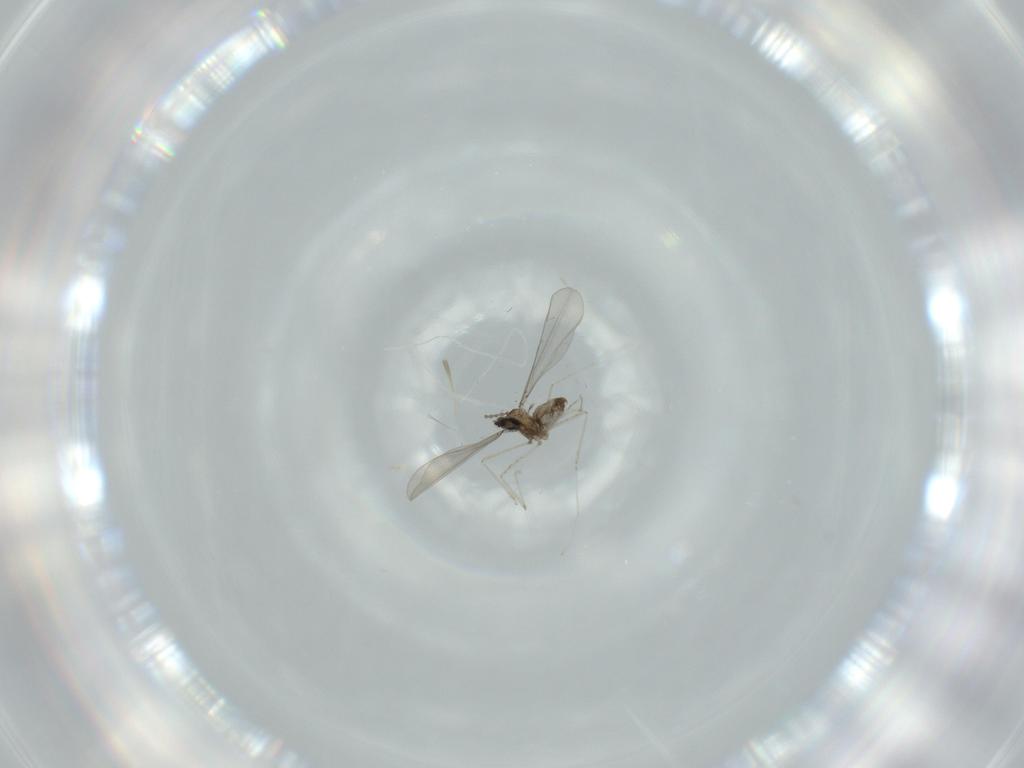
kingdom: Animalia
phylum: Arthropoda
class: Insecta
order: Diptera
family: Cecidomyiidae
